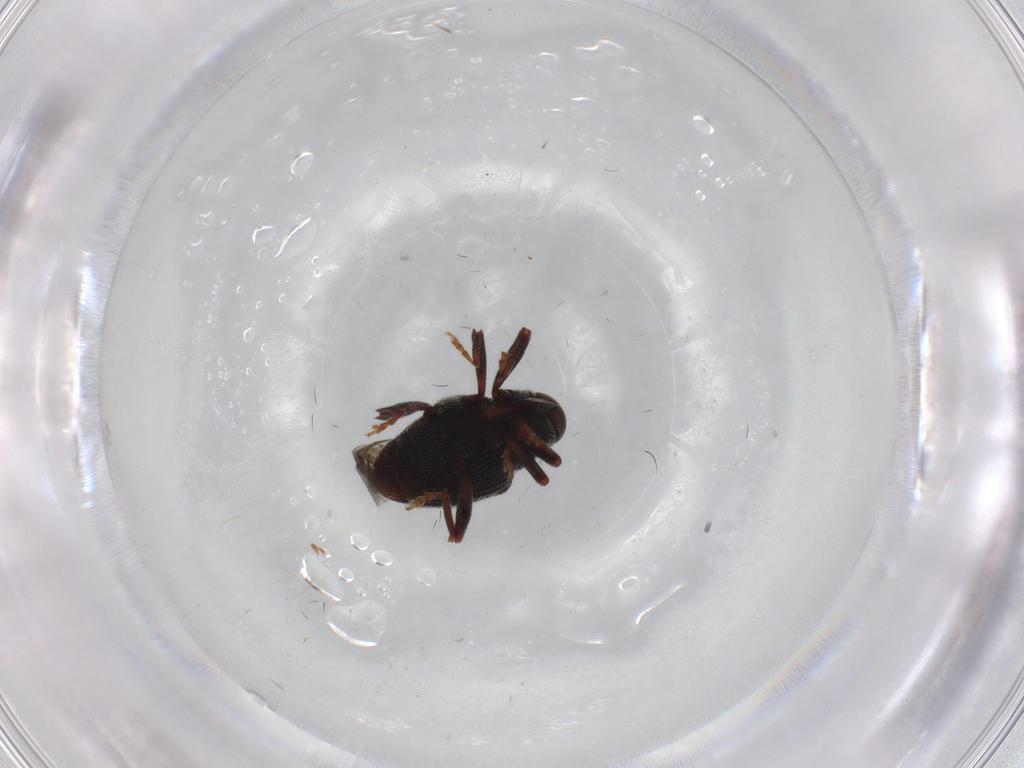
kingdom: Animalia
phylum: Arthropoda
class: Insecta
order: Coleoptera
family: Curculionidae
